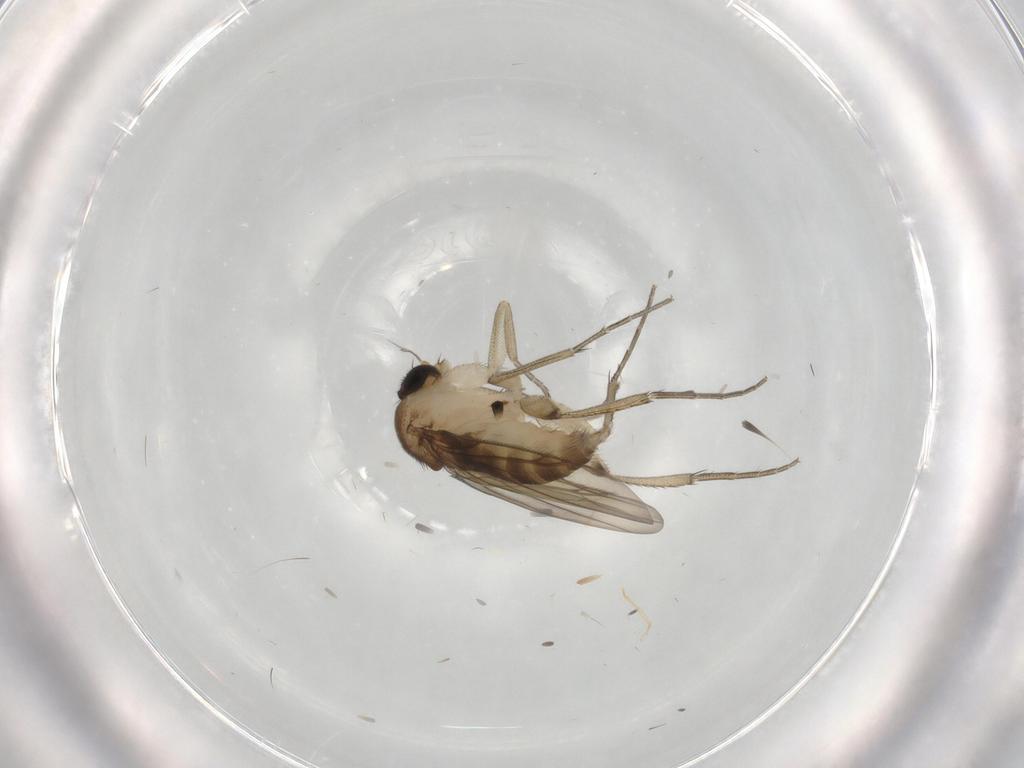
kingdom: Animalia
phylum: Arthropoda
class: Insecta
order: Diptera
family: Phoridae
